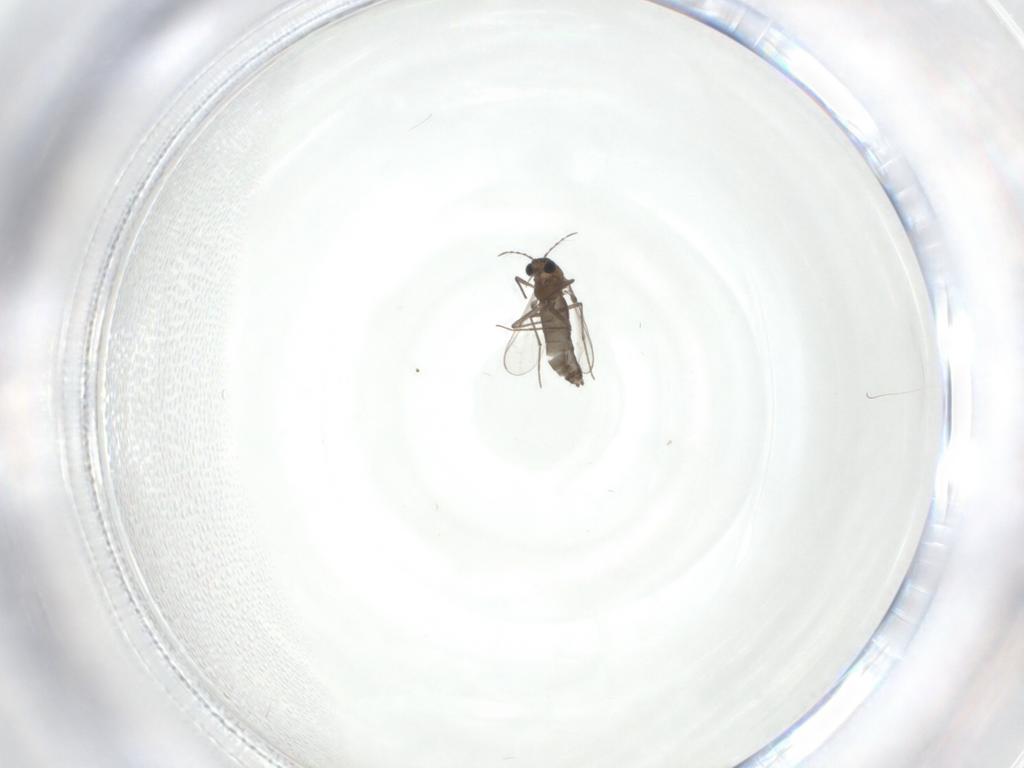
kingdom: Animalia
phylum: Arthropoda
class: Insecta
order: Diptera
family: Chironomidae
